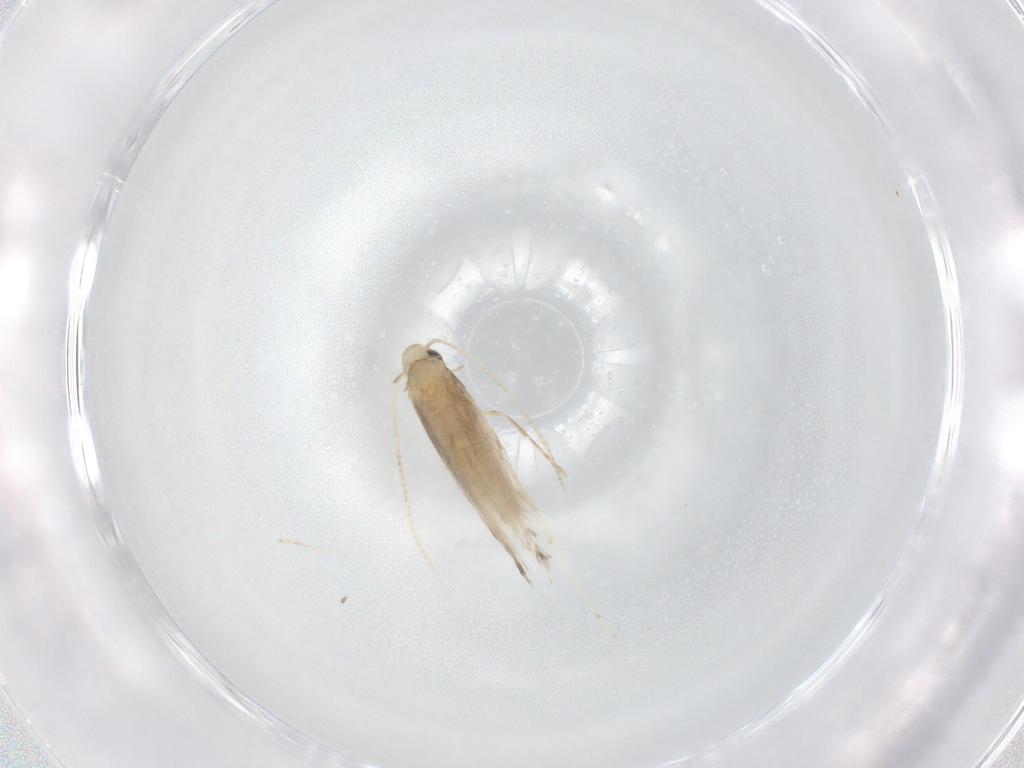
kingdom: Animalia
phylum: Arthropoda
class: Insecta
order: Lepidoptera
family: Gracillariidae
